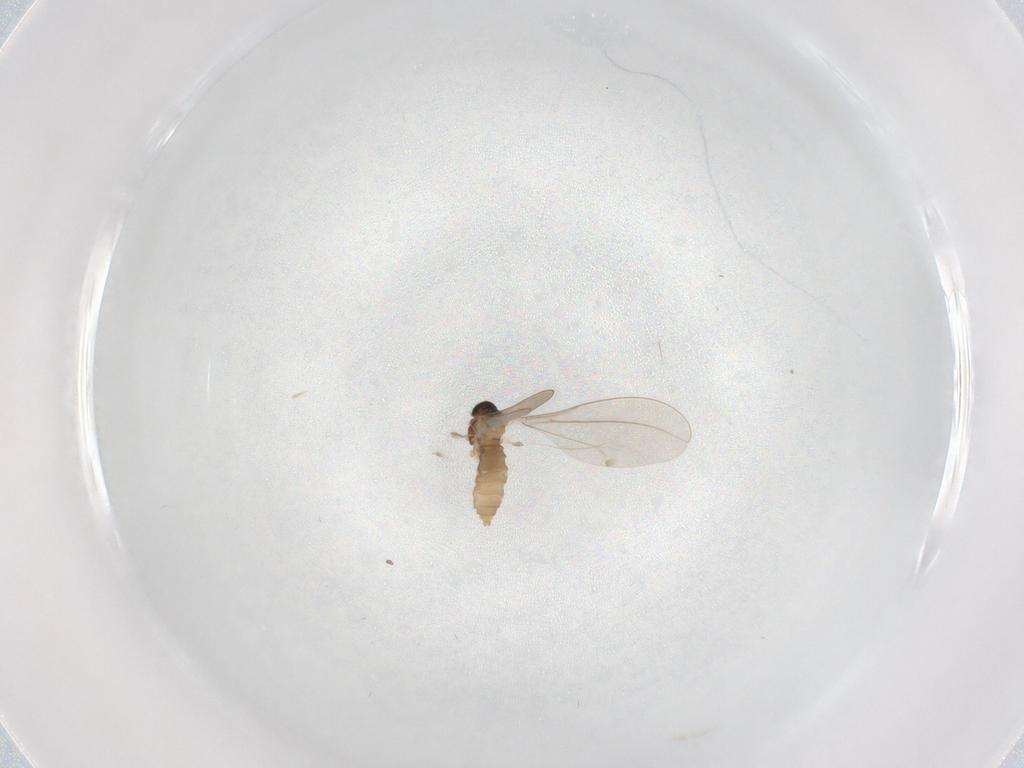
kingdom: Animalia
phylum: Arthropoda
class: Insecta
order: Diptera
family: Cecidomyiidae
